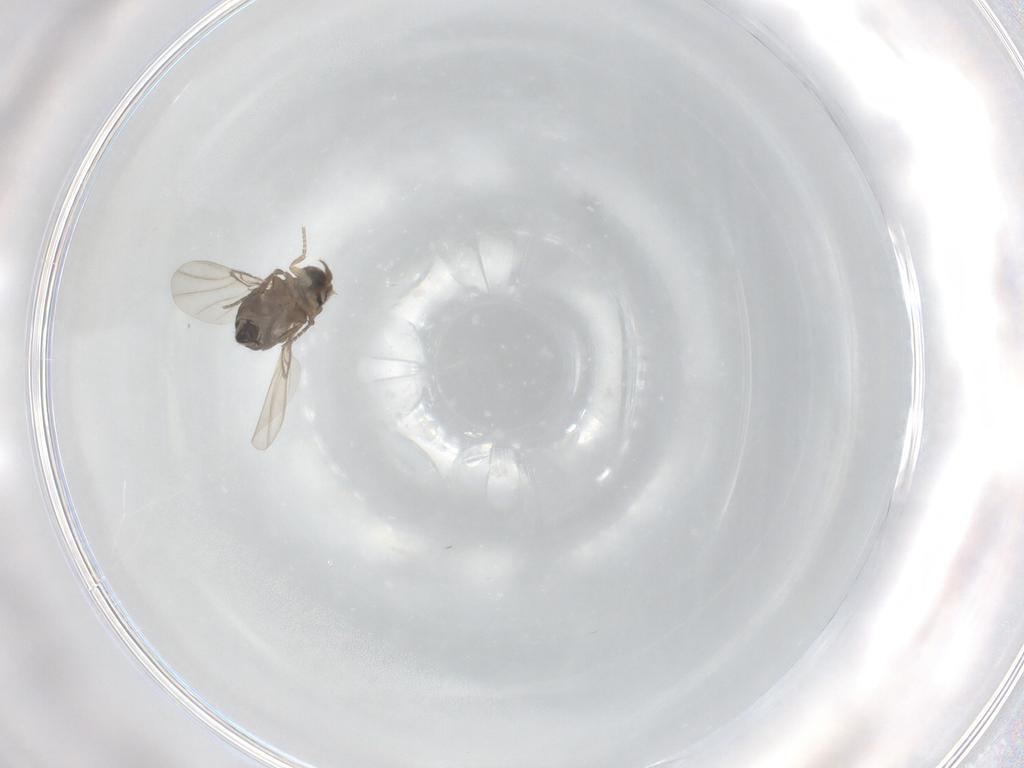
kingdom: Animalia
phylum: Arthropoda
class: Insecta
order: Diptera
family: Phoridae
